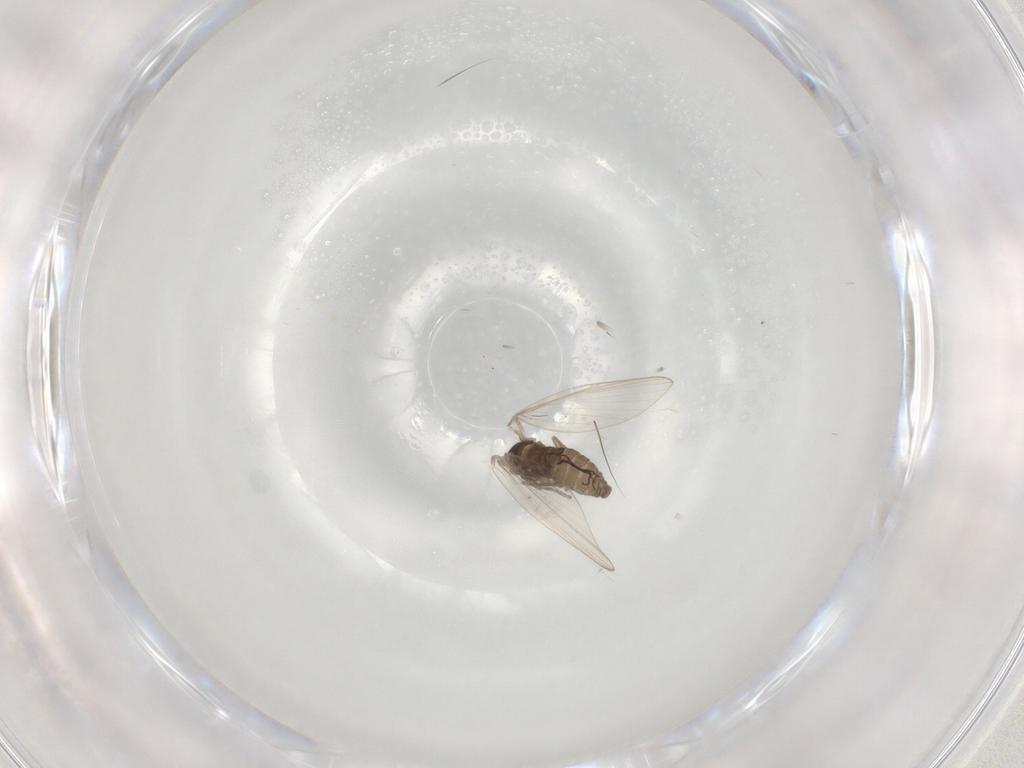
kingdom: Animalia
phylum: Arthropoda
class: Insecta
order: Diptera
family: Psychodidae
